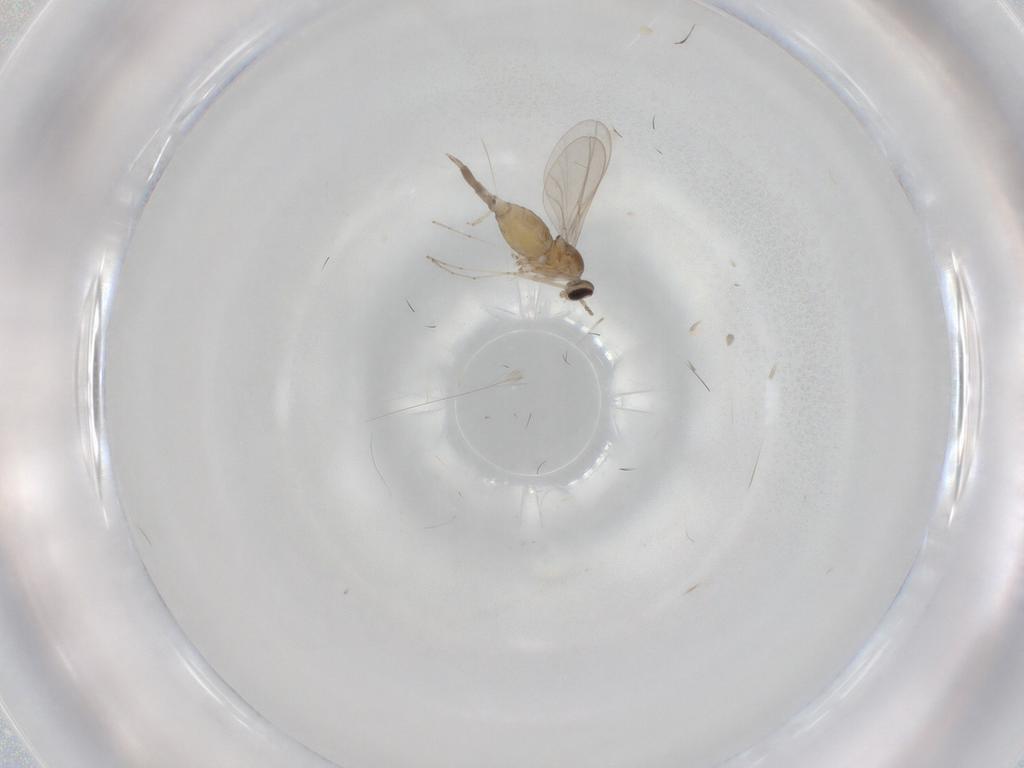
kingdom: Animalia
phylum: Arthropoda
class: Insecta
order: Diptera
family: Cecidomyiidae
